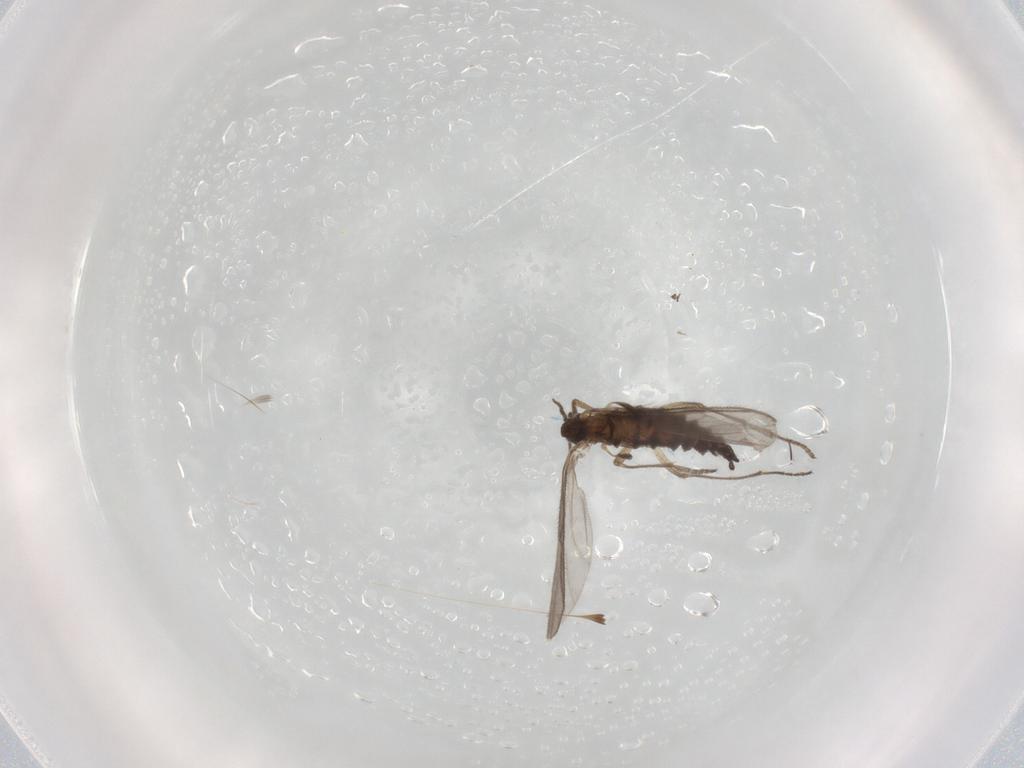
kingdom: Animalia
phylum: Arthropoda
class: Insecta
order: Diptera
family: Sciaridae
